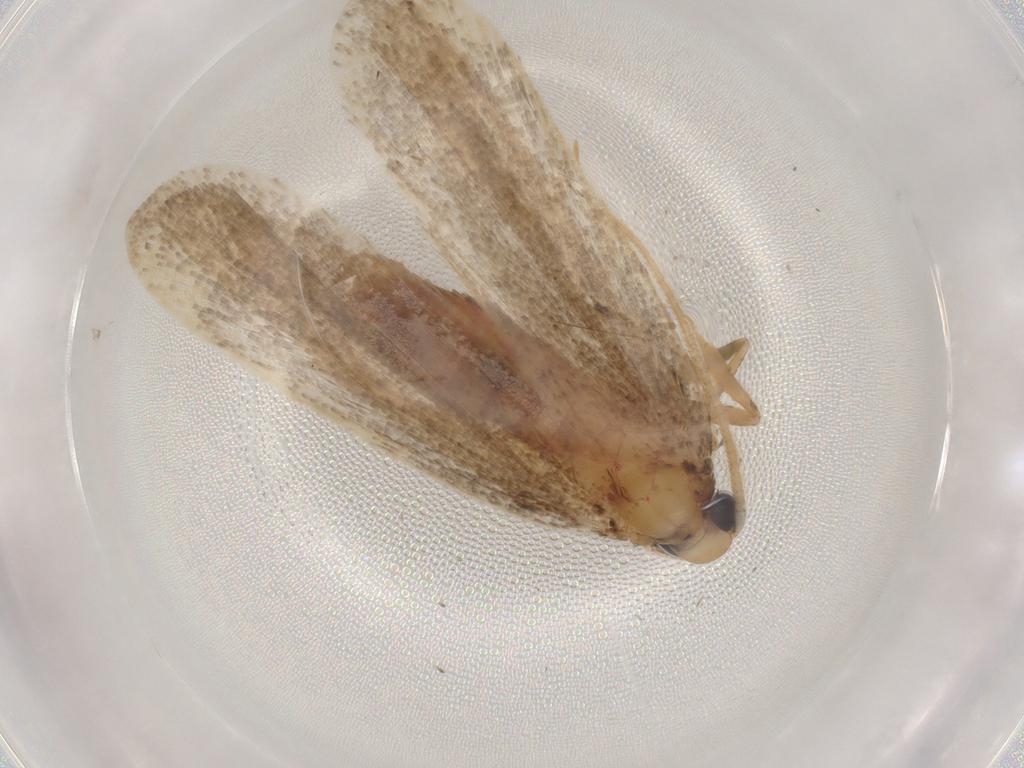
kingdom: Animalia
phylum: Arthropoda
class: Insecta
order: Lepidoptera
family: Lecithoceridae
